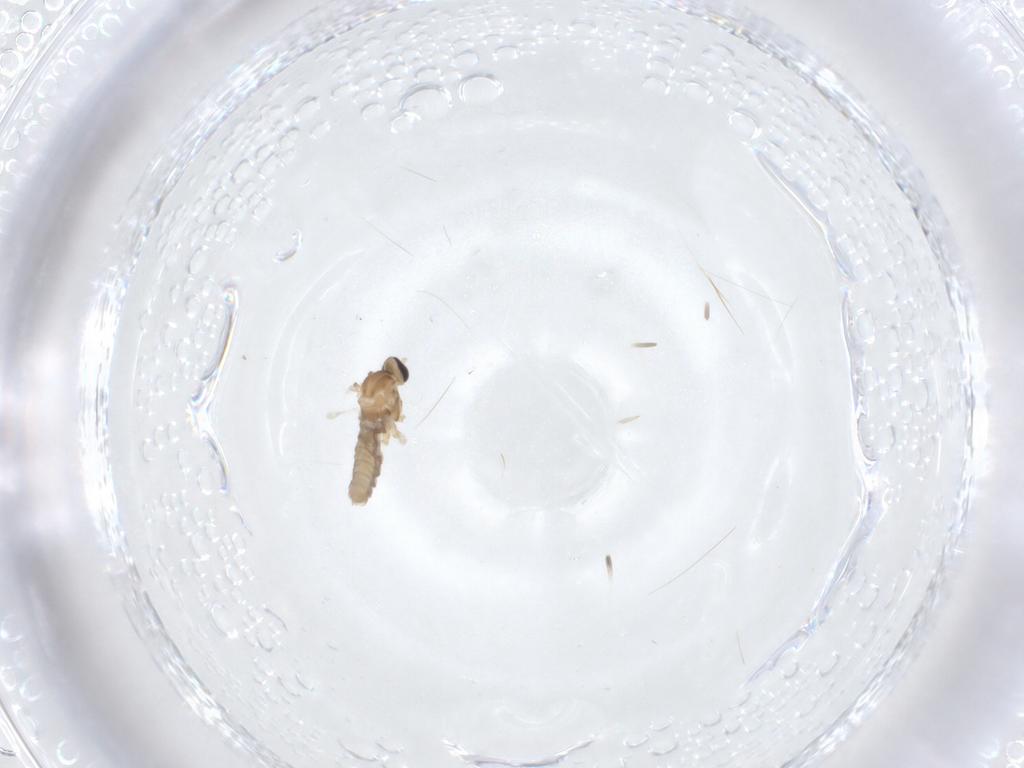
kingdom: Animalia
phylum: Arthropoda
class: Insecta
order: Diptera
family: Cecidomyiidae
